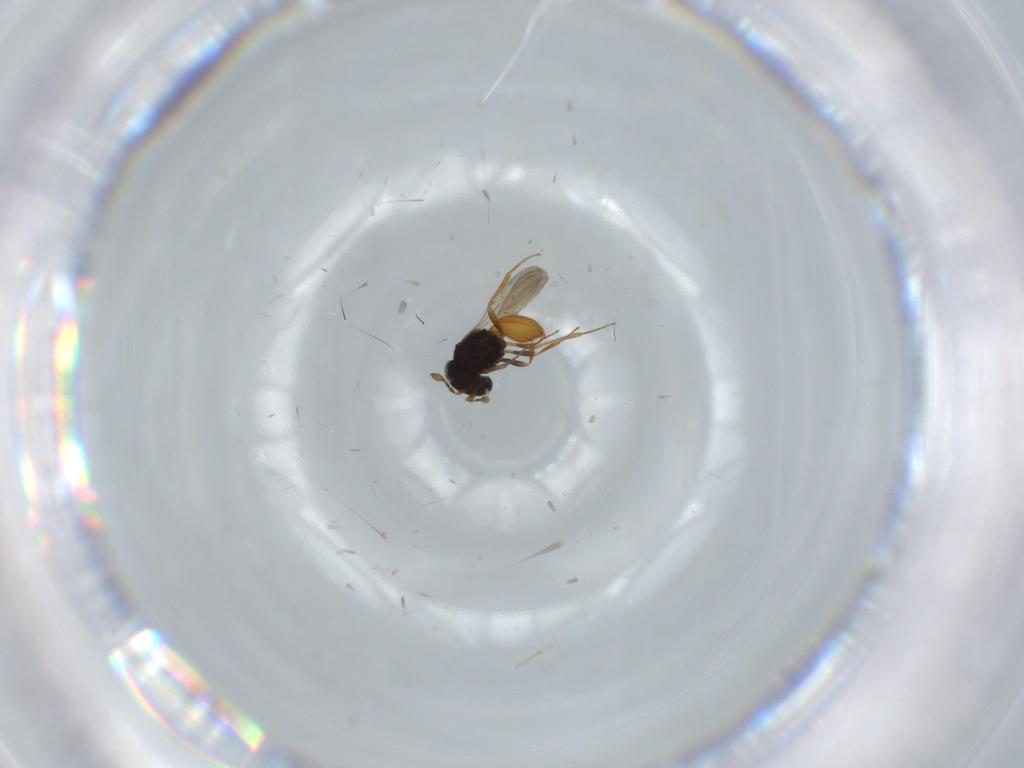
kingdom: Animalia
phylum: Arthropoda
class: Insecta
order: Hymenoptera
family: Scelionidae
